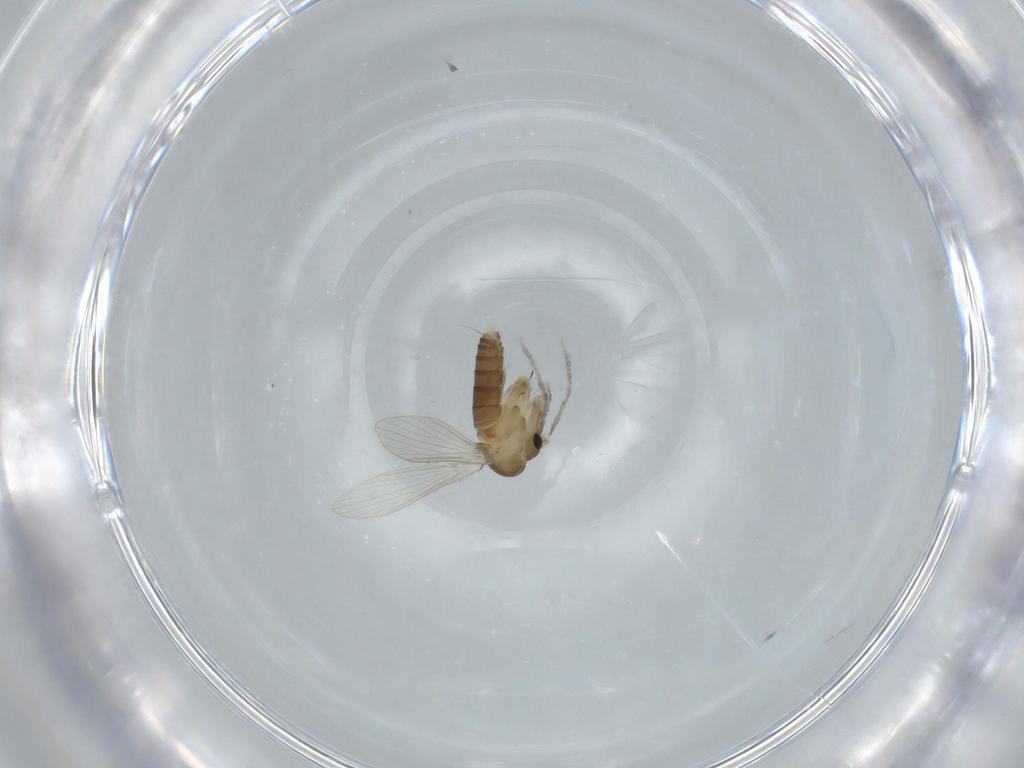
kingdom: Animalia
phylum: Arthropoda
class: Insecta
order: Diptera
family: Psychodidae
